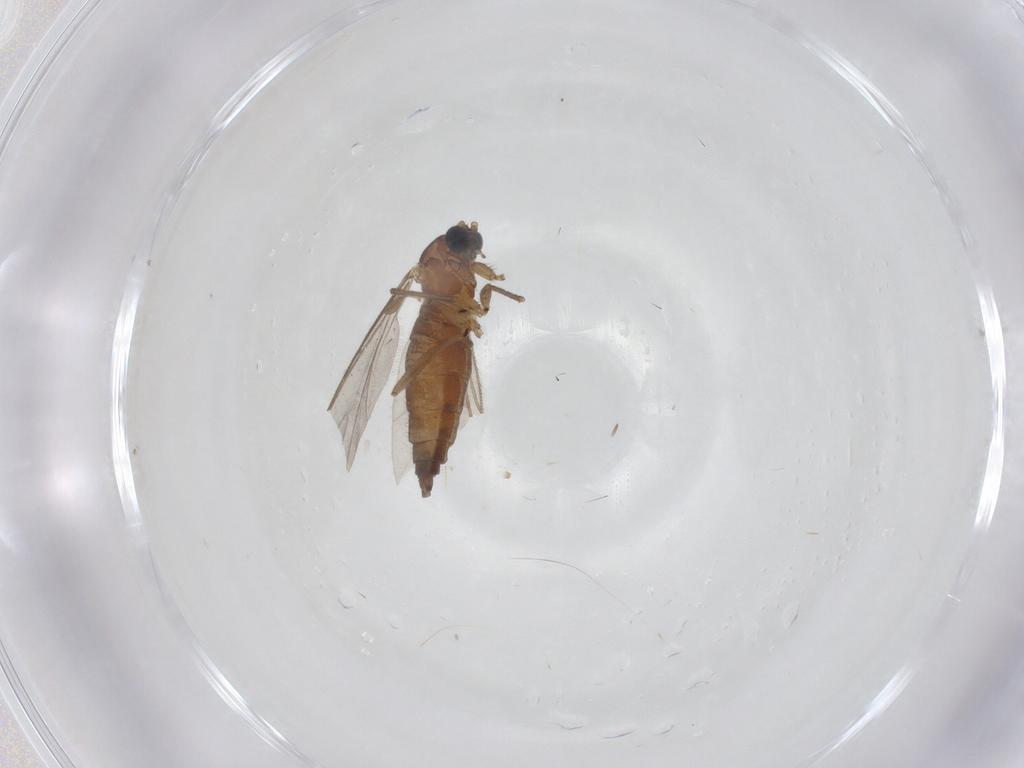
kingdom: Animalia
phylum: Arthropoda
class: Insecta
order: Diptera
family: Sciaridae
